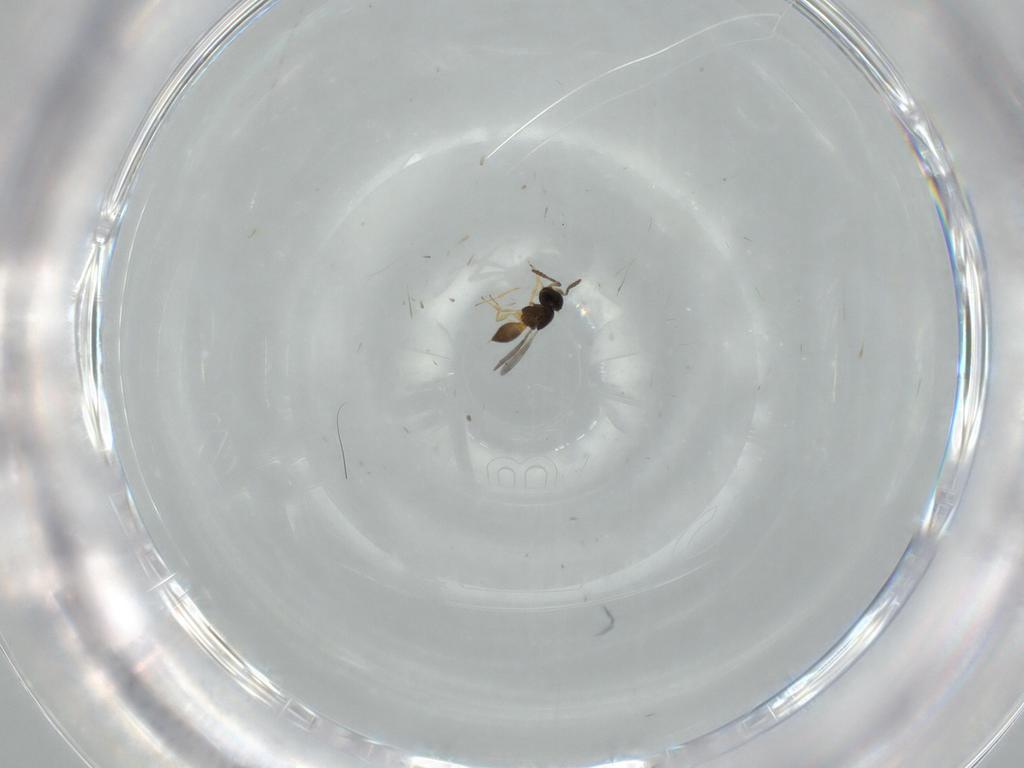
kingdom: Animalia
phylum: Arthropoda
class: Insecta
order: Hymenoptera
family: Scelionidae
